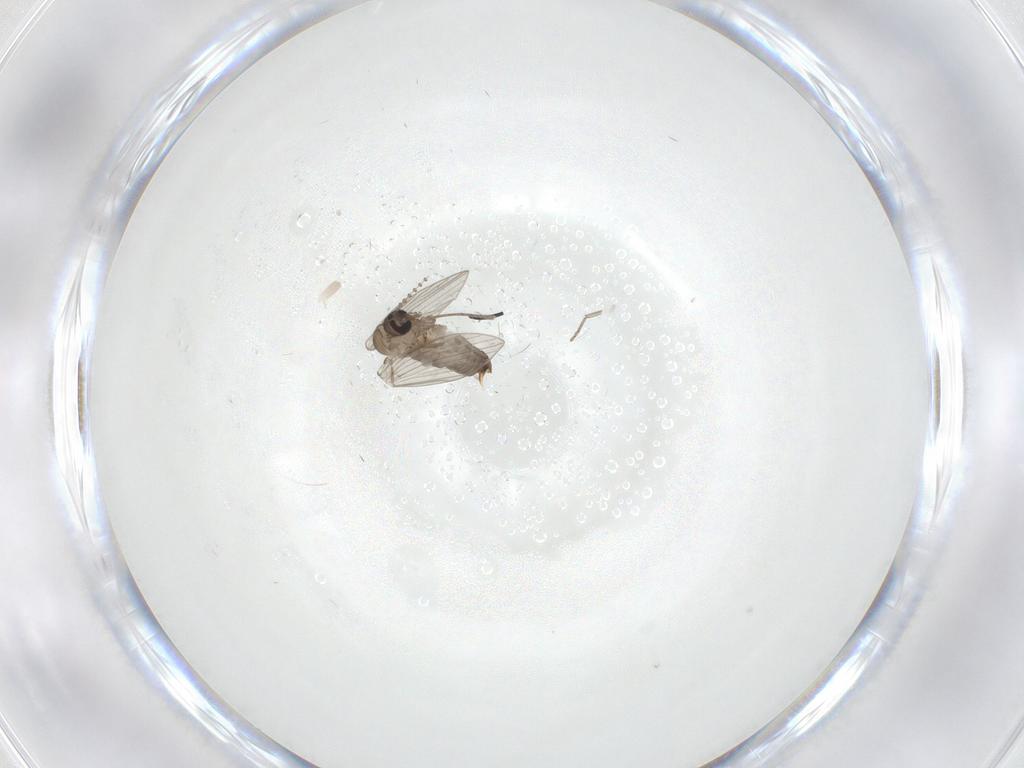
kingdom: Animalia
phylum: Arthropoda
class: Insecta
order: Diptera
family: Psychodidae
